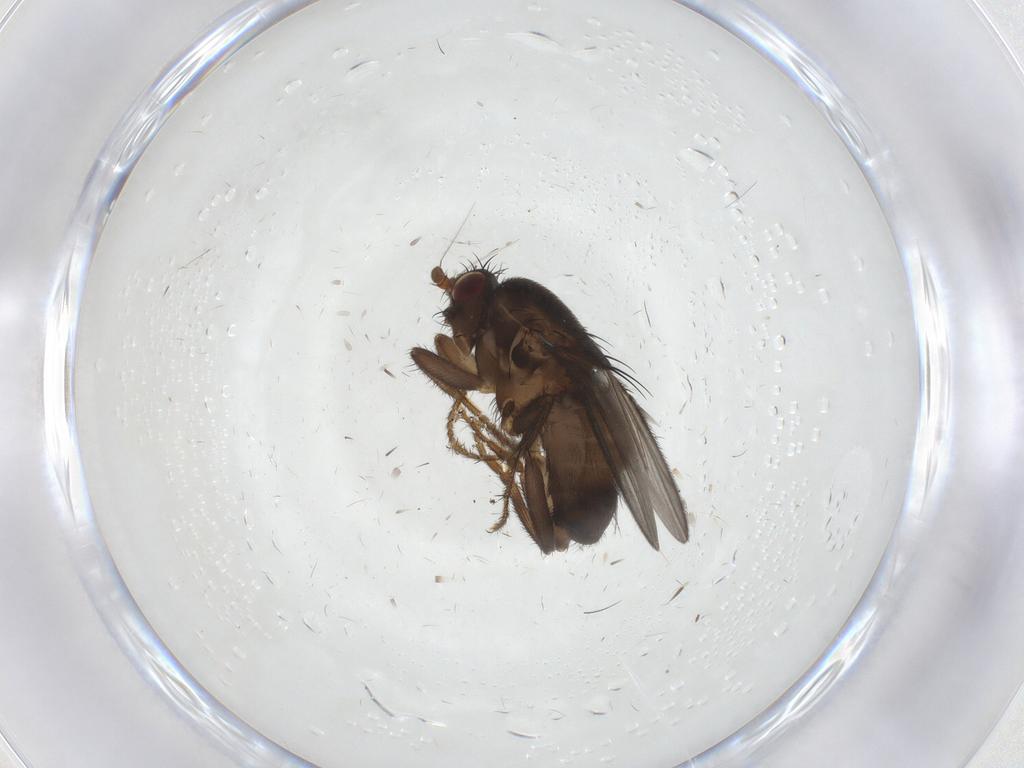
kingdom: Animalia
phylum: Arthropoda
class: Insecta
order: Diptera
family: Sphaeroceridae
